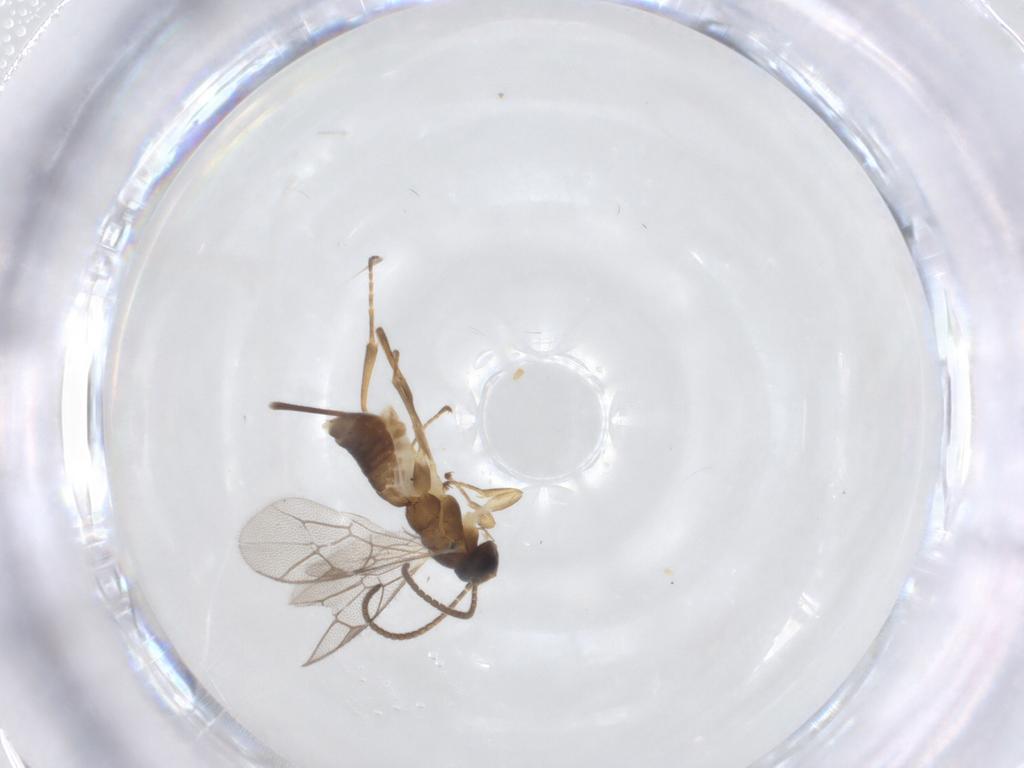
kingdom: Animalia
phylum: Arthropoda
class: Insecta
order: Hymenoptera
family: Ichneumonidae
